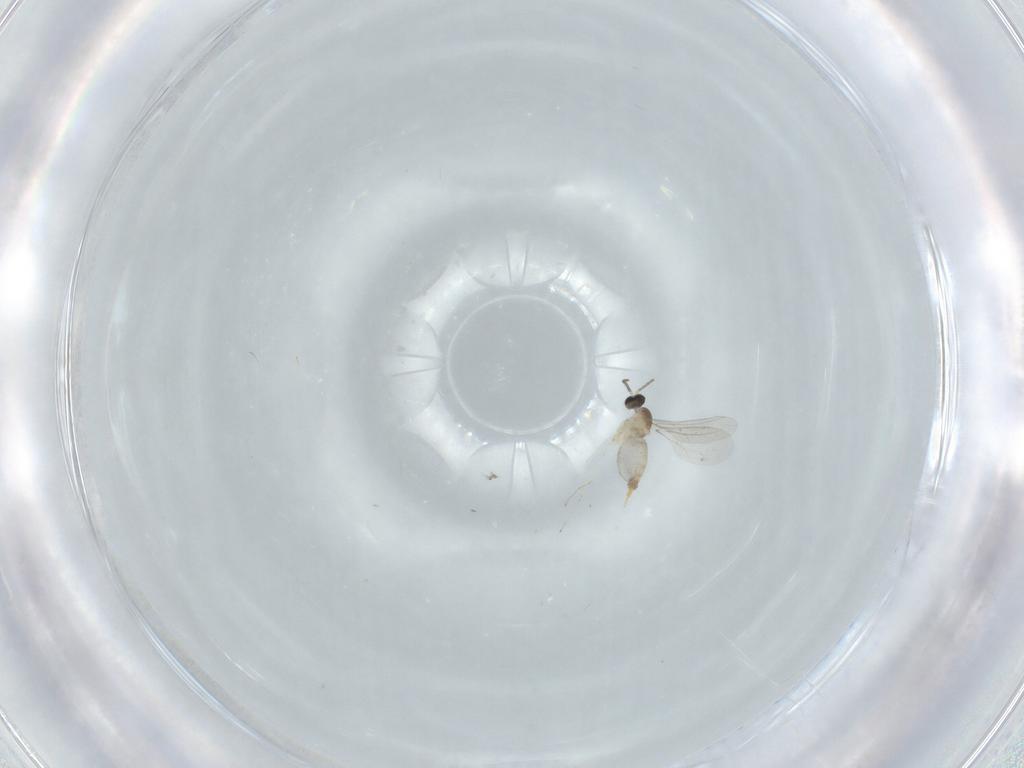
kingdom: Animalia
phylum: Arthropoda
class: Insecta
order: Diptera
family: Cecidomyiidae
